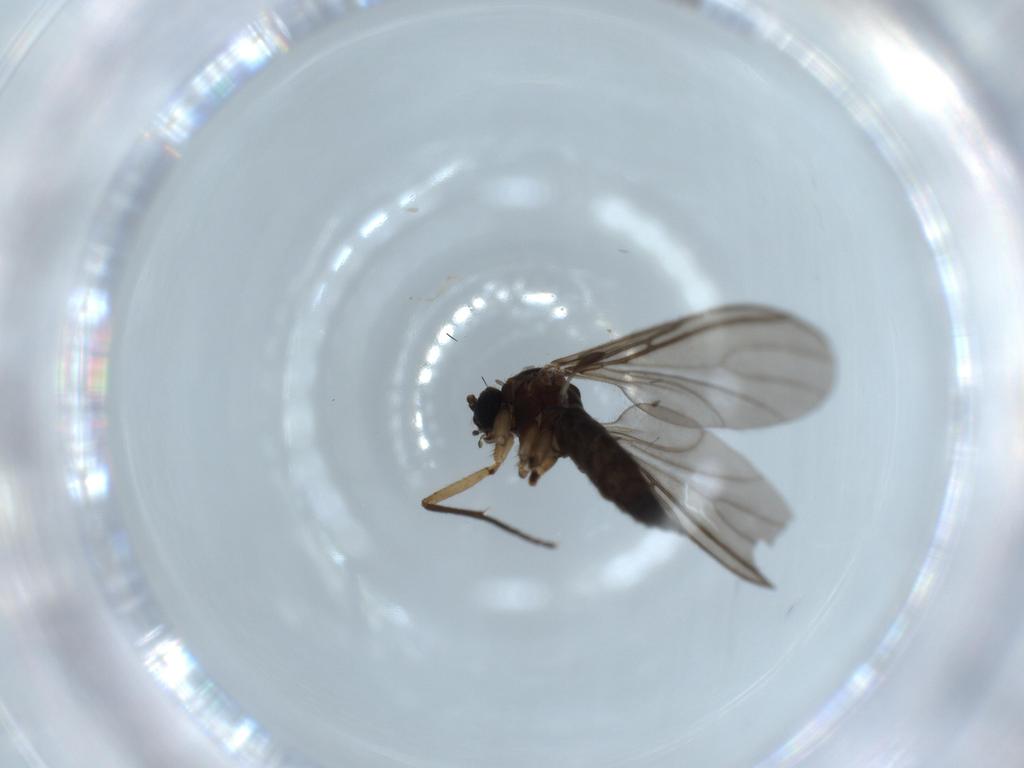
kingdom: Animalia
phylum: Arthropoda
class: Insecta
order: Diptera
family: Sciaridae
